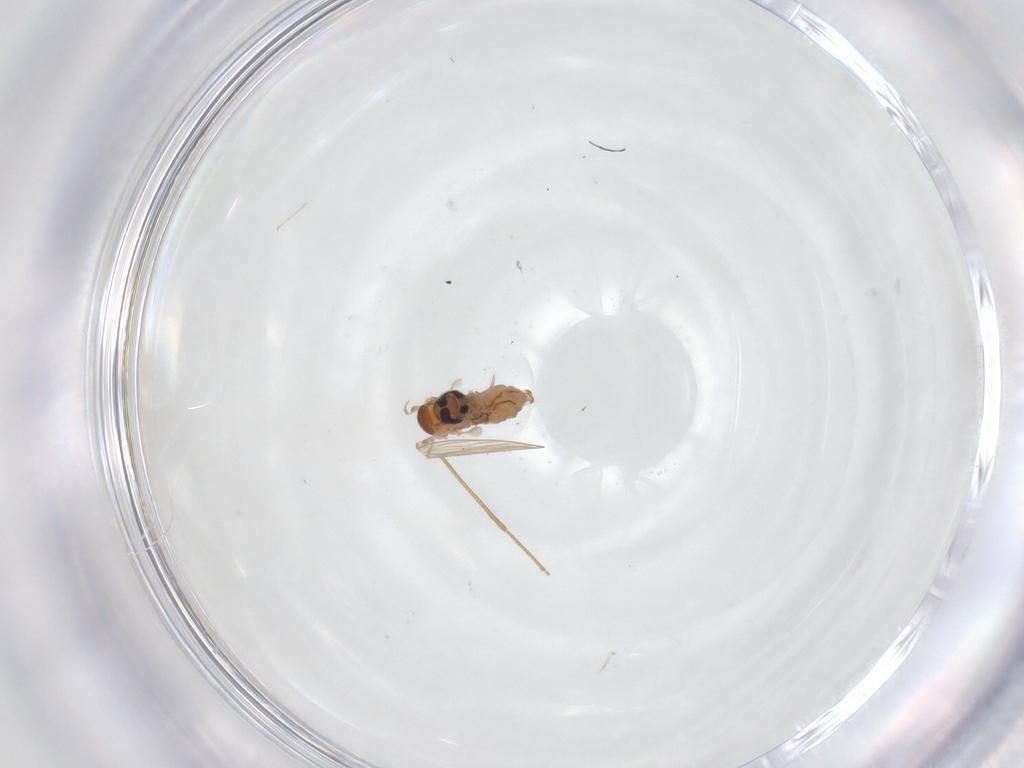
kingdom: Animalia
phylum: Arthropoda
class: Insecta
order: Diptera
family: Psychodidae
